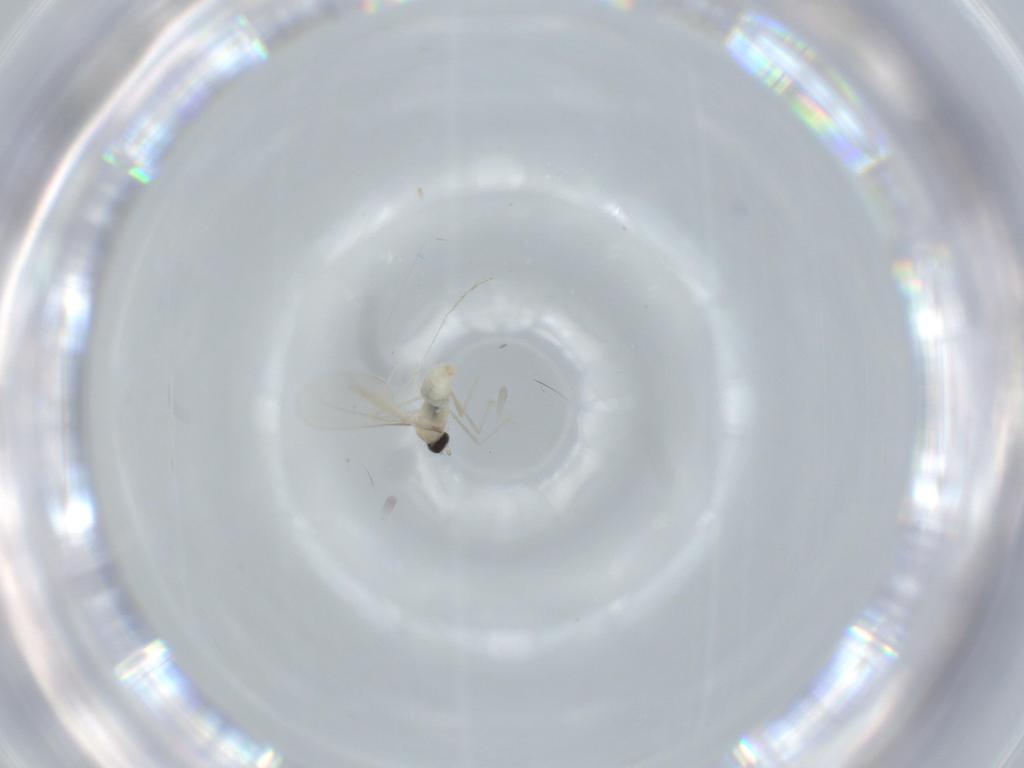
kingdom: Animalia
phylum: Arthropoda
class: Insecta
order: Diptera
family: Cecidomyiidae
